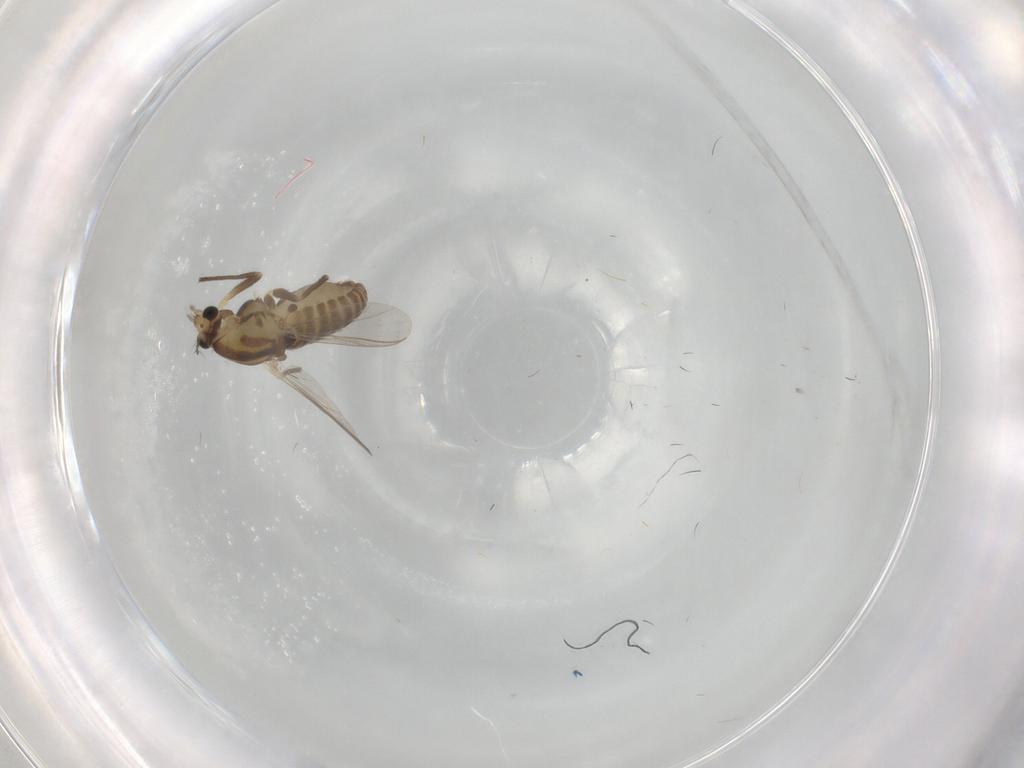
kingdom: Animalia
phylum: Arthropoda
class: Insecta
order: Diptera
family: Chironomidae
